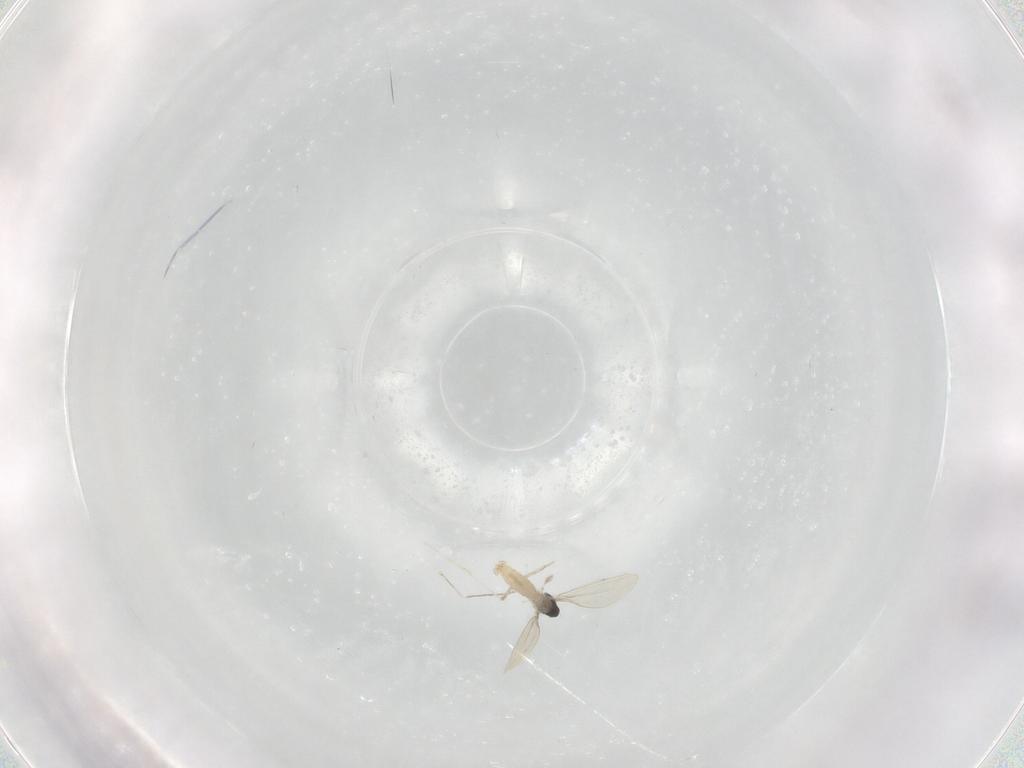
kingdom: Animalia
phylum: Arthropoda
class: Insecta
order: Diptera
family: Cecidomyiidae
